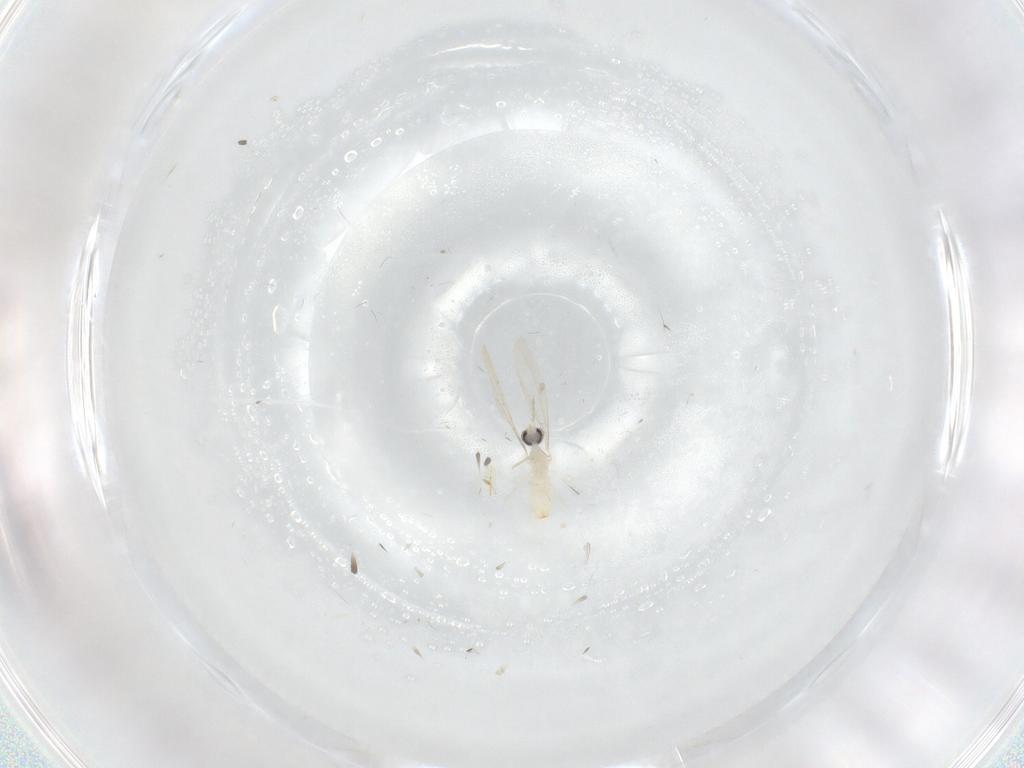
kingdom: Animalia
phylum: Arthropoda
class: Insecta
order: Diptera
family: Cecidomyiidae
